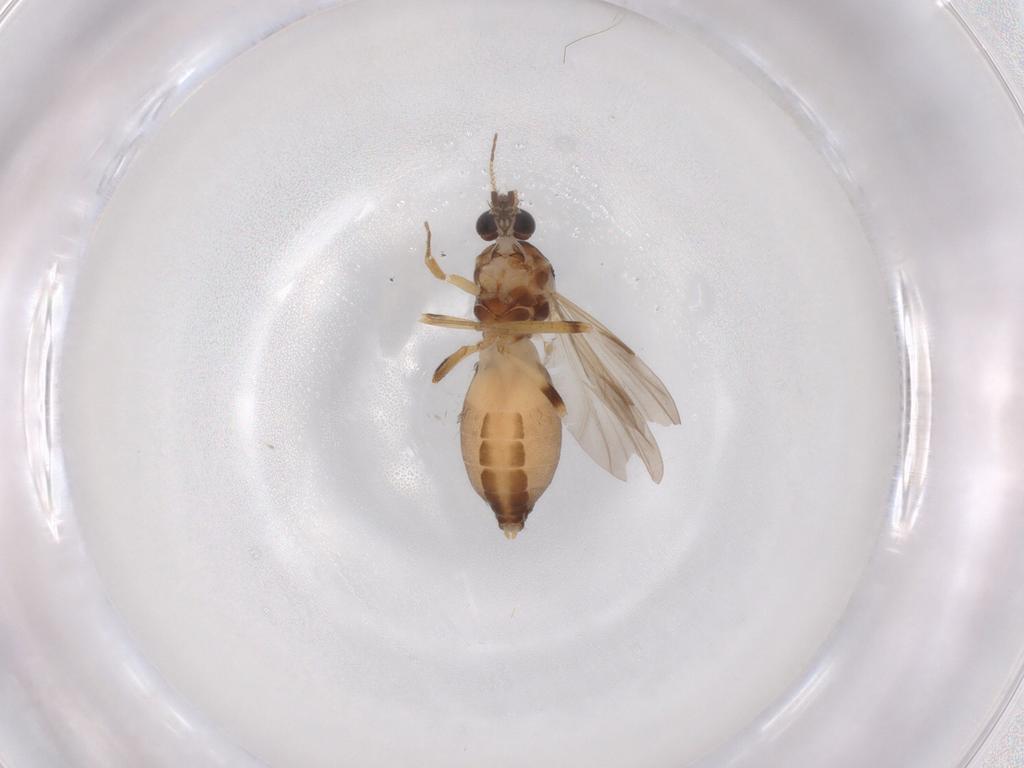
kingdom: Animalia
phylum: Arthropoda
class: Insecta
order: Diptera
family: Ceratopogonidae
